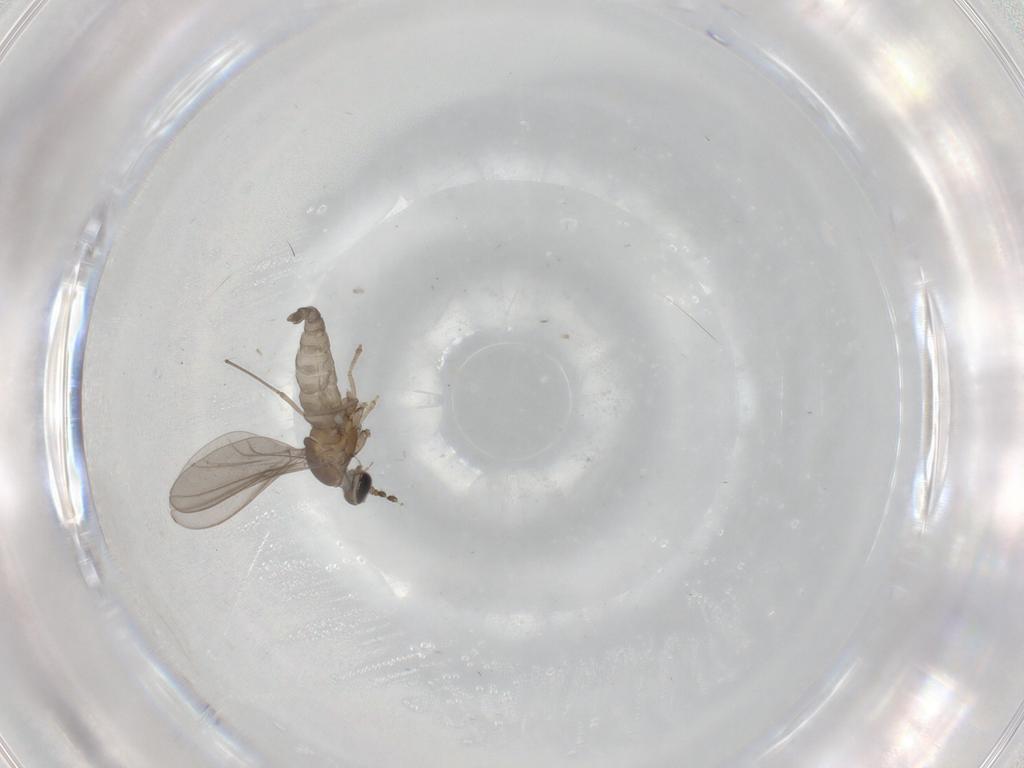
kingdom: Animalia
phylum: Arthropoda
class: Insecta
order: Diptera
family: Cecidomyiidae
